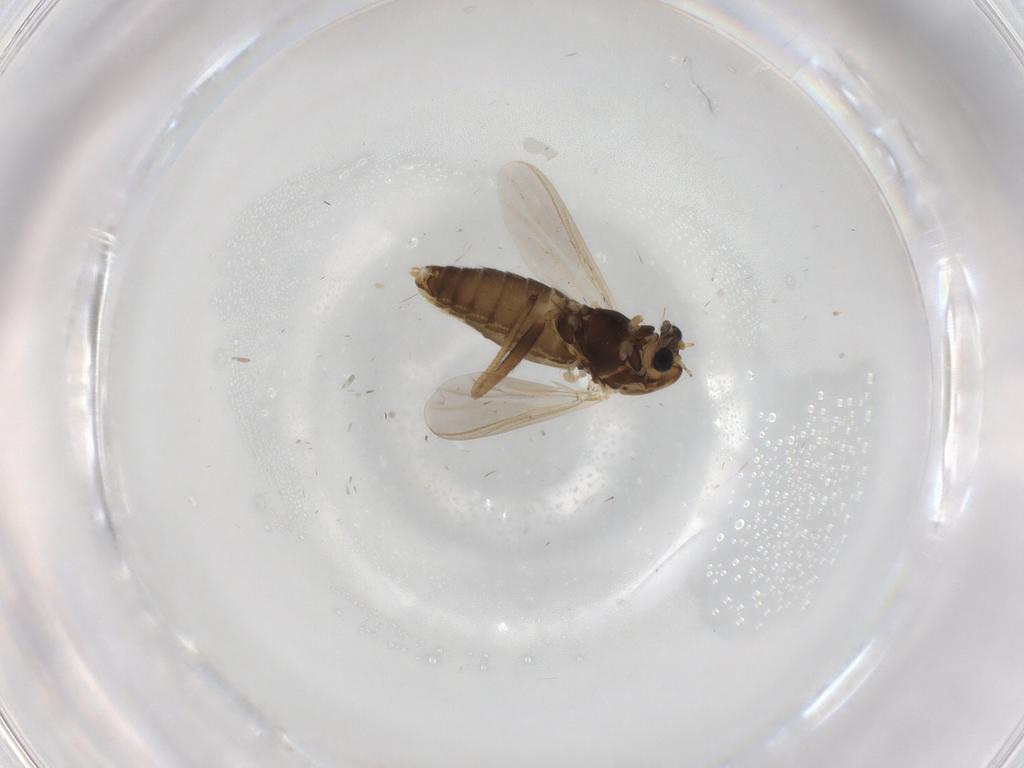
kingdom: Animalia
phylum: Arthropoda
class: Insecta
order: Diptera
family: Chironomidae
